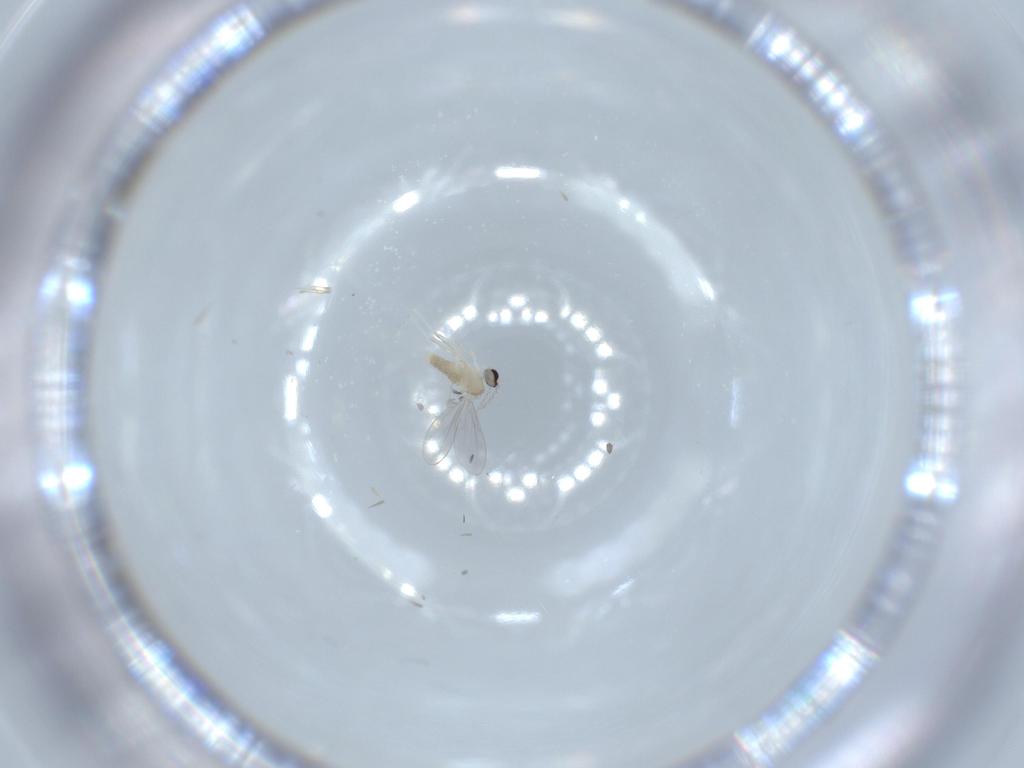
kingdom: Animalia
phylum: Arthropoda
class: Insecta
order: Diptera
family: Cecidomyiidae
